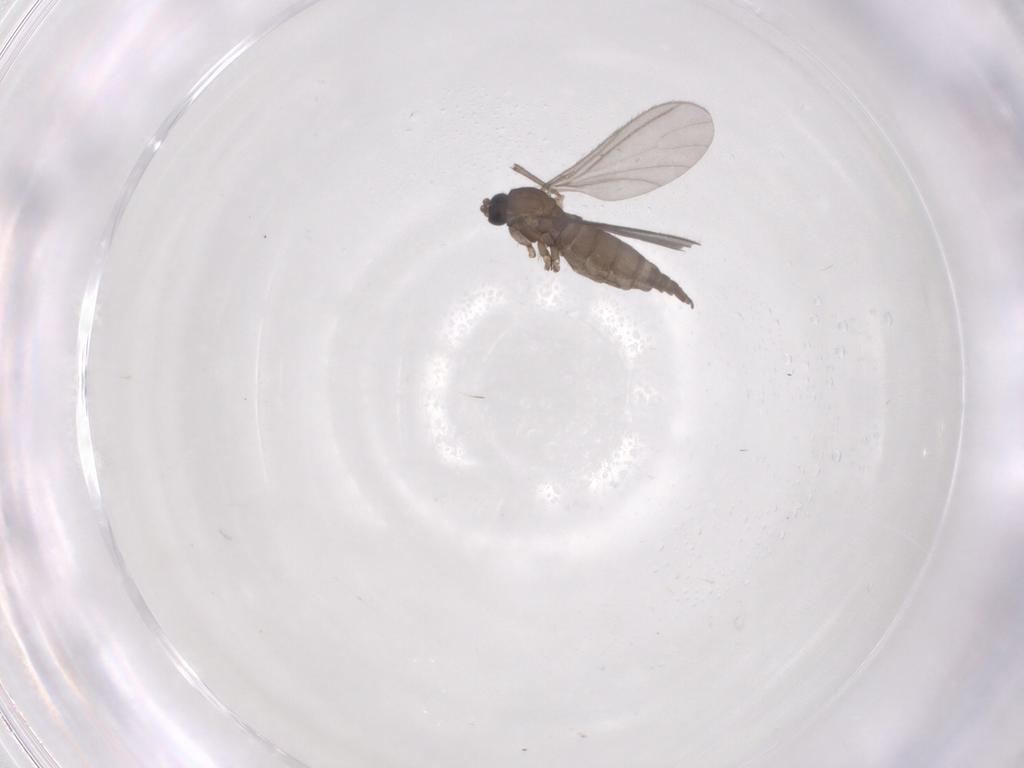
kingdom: Animalia
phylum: Arthropoda
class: Insecta
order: Diptera
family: Sciaridae
